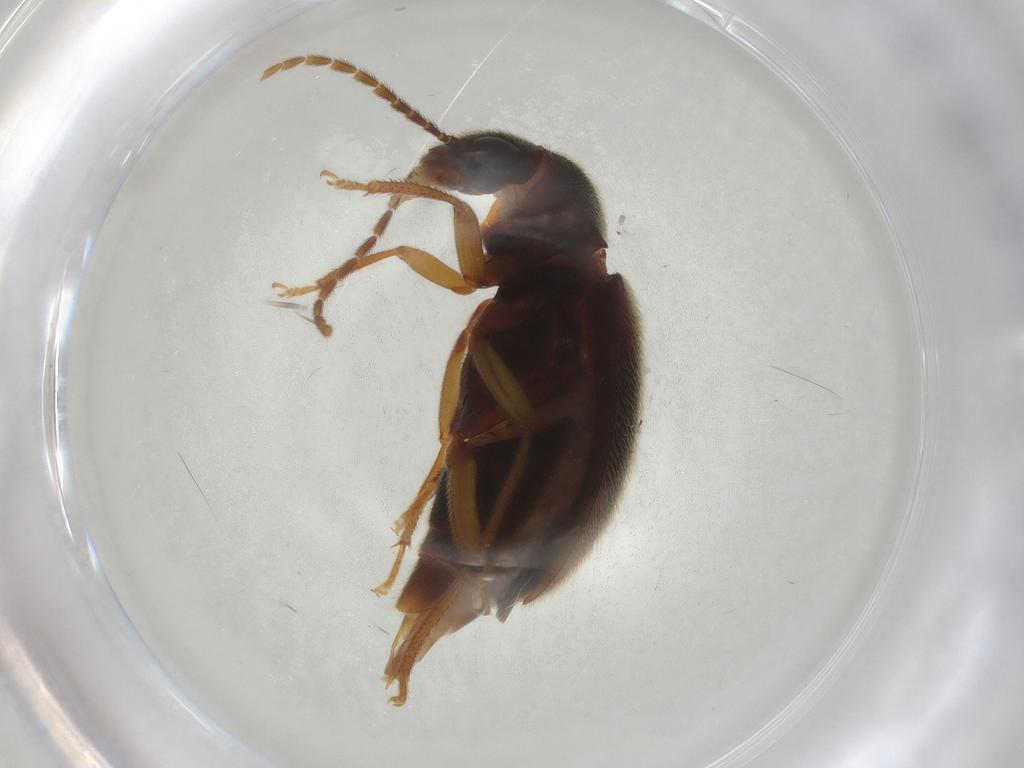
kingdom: Animalia
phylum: Arthropoda
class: Insecta
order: Coleoptera
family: Ptilodactylidae
